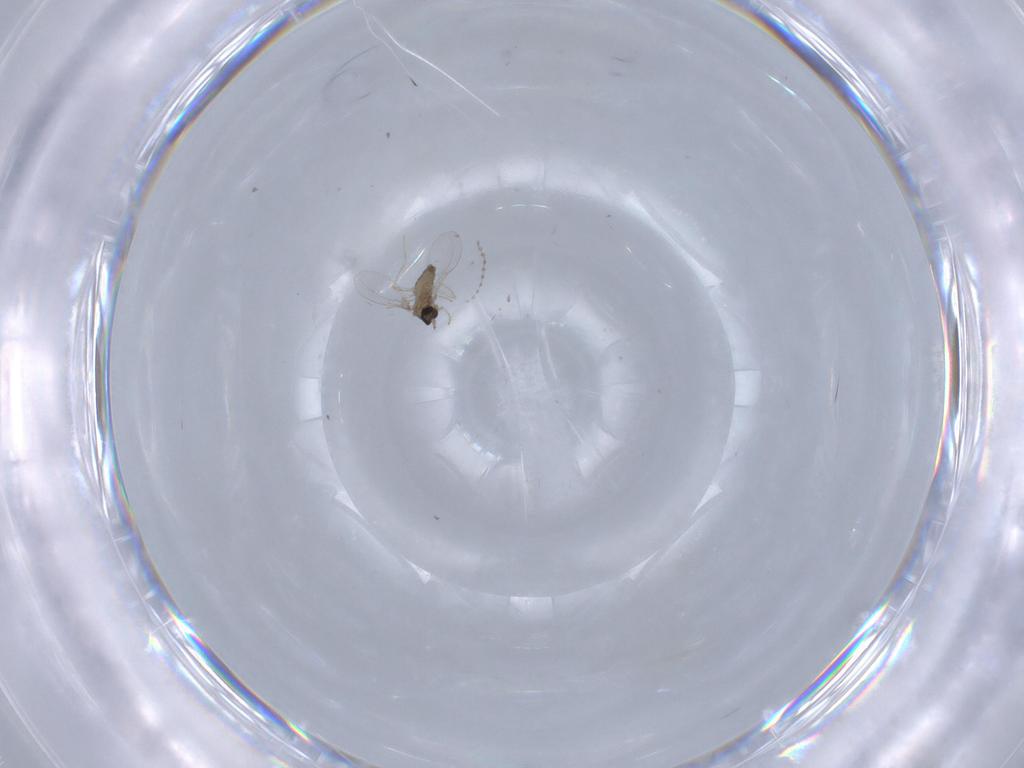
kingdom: Animalia
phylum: Arthropoda
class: Insecta
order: Diptera
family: Cecidomyiidae
